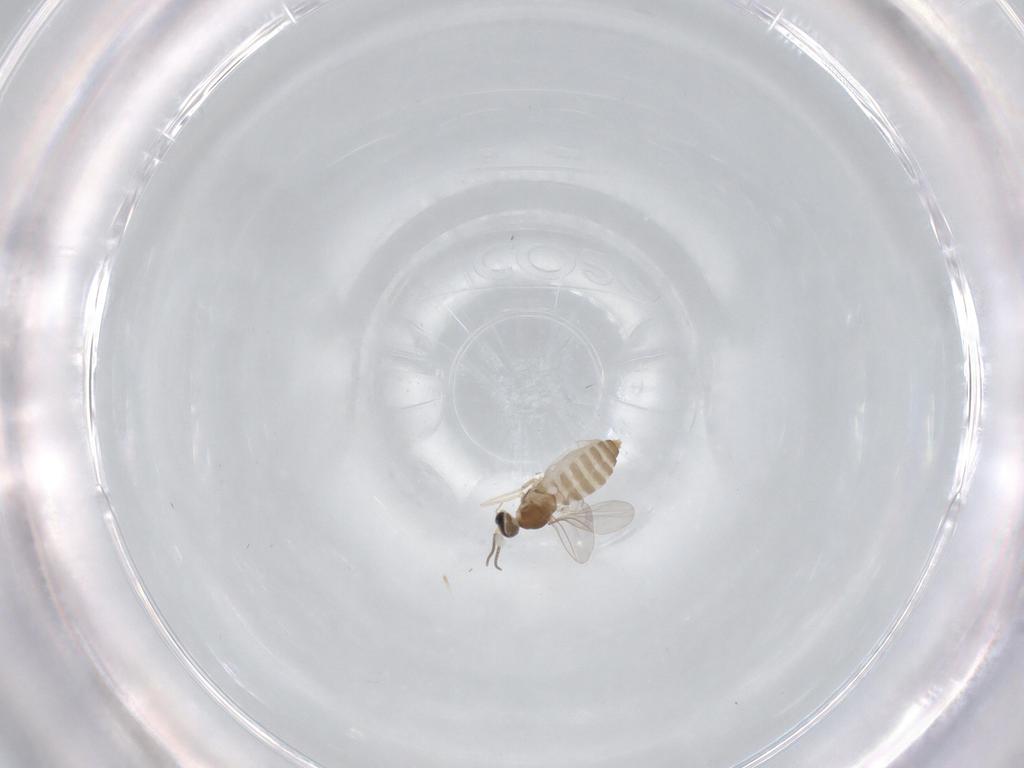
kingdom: Animalia
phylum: Arthropoda
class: Insecta
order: Diptera
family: Cecidomyiidae
